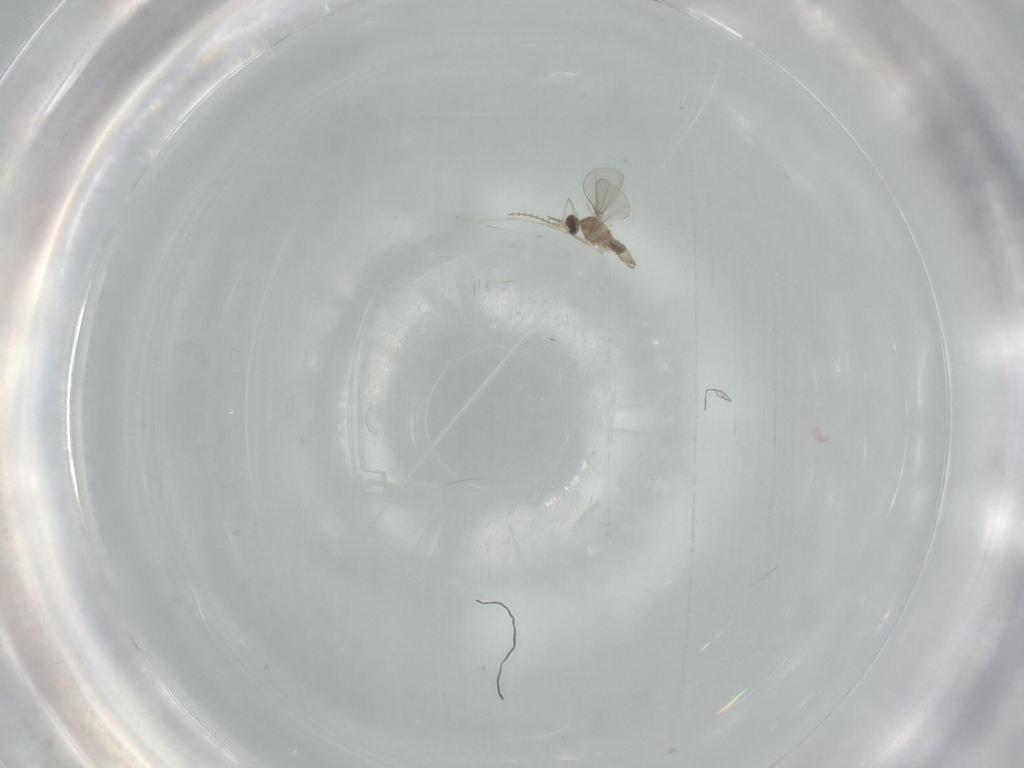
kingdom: Animalia
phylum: Arthropoda
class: Insecta
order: Diptera
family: Cecidomyiidae
